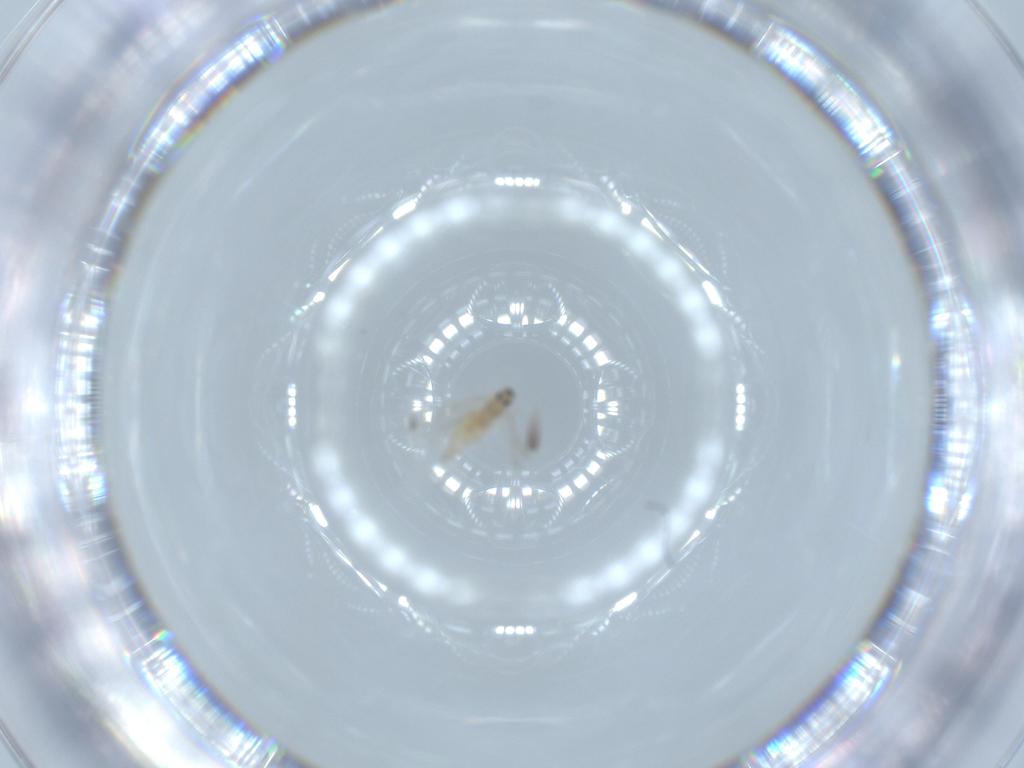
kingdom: Animalia
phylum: Arthropoda
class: Insecta
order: Diptera
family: Cecidomyiidae
